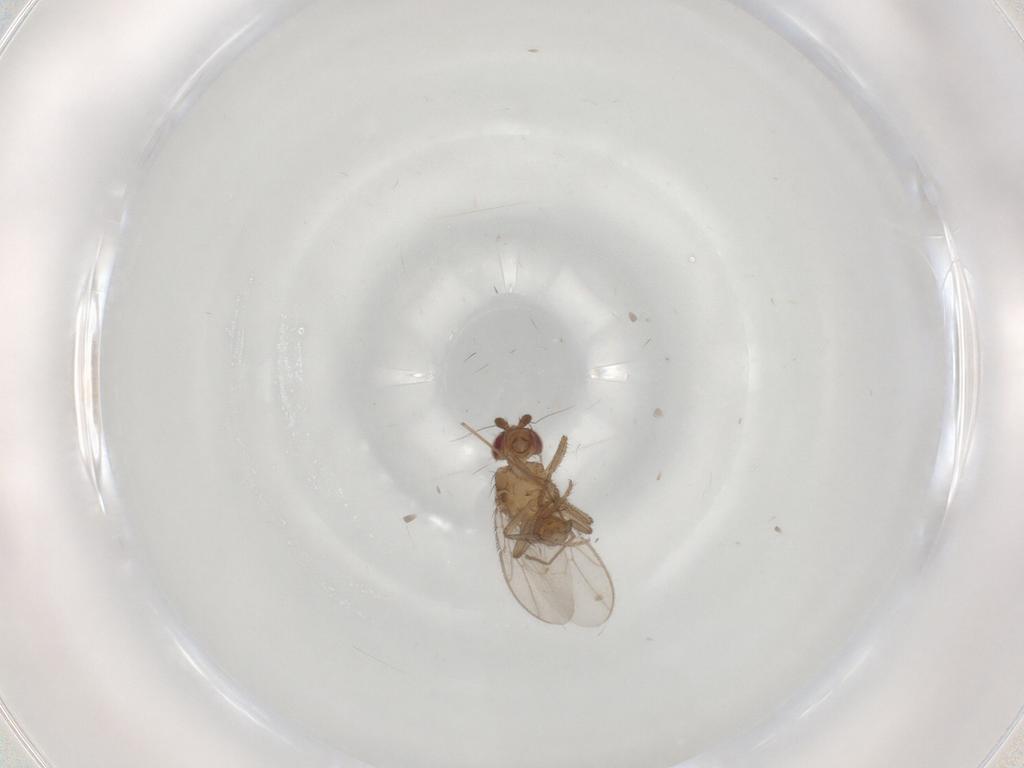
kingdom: Animalia
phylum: Arthropoda
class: Insecta
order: Diptera
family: Sphaeroceridae
